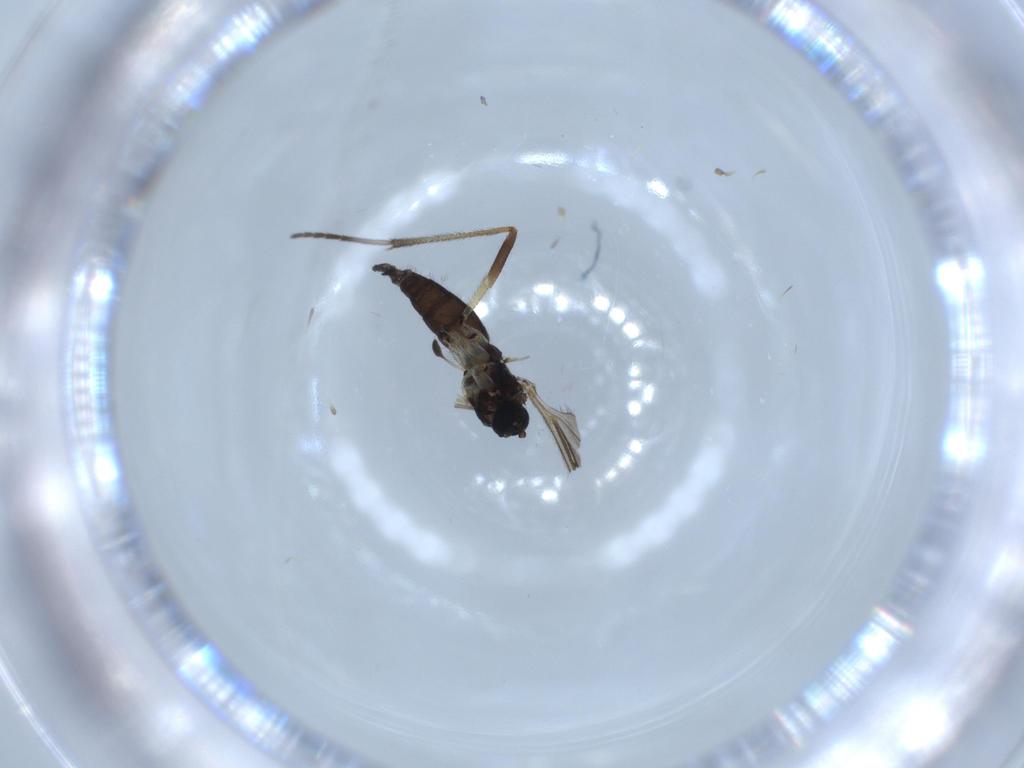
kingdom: Animalia
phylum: Arthropoda
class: Insecta
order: Diptera
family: Sciaridae
